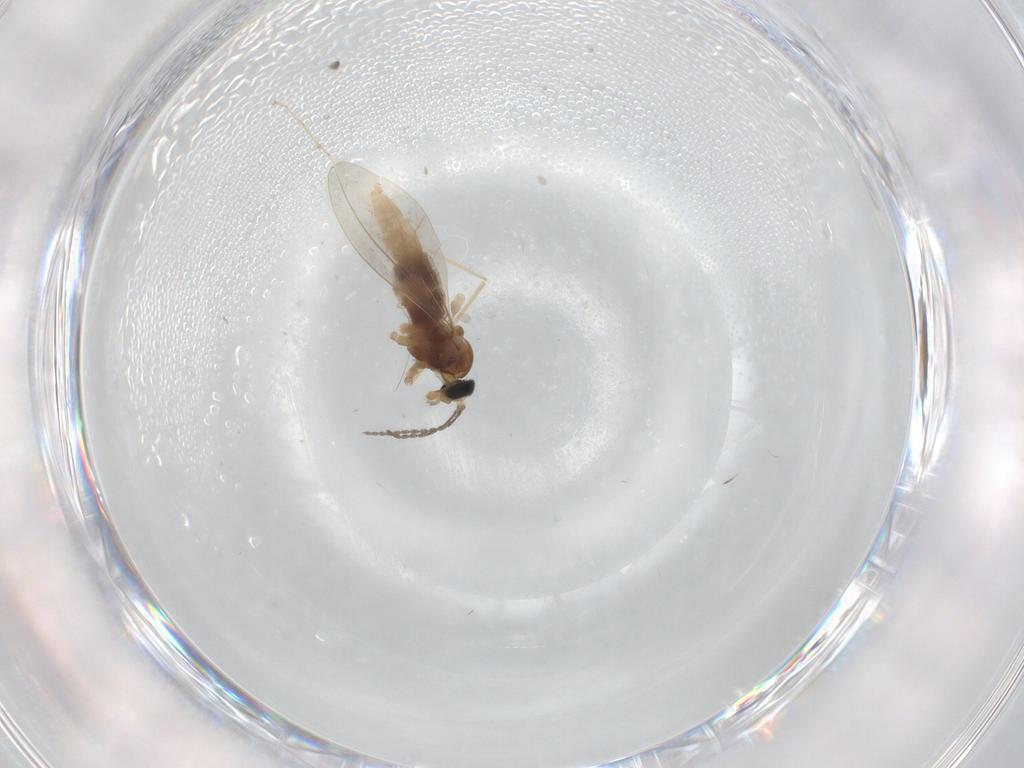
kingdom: Animalia
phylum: Arthropoda
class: Insecta
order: Diptera
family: Cecidomyiidae
